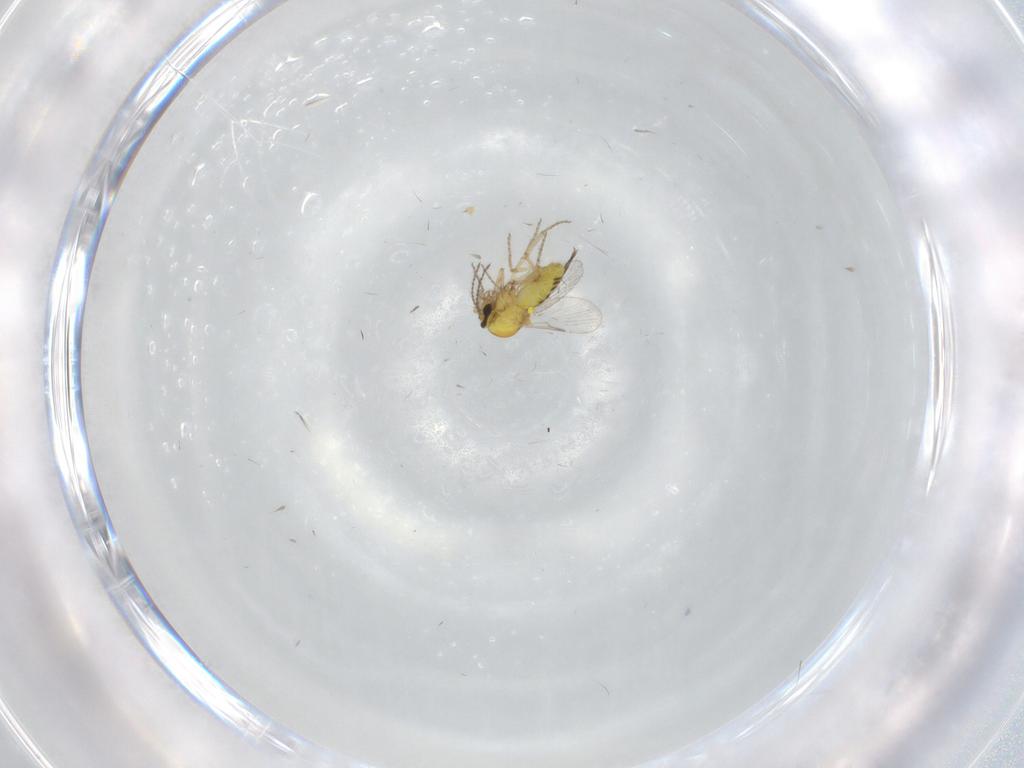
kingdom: Animalia
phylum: Arthropoda
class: Insecta
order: Diptera
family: Ceratopogonidae
